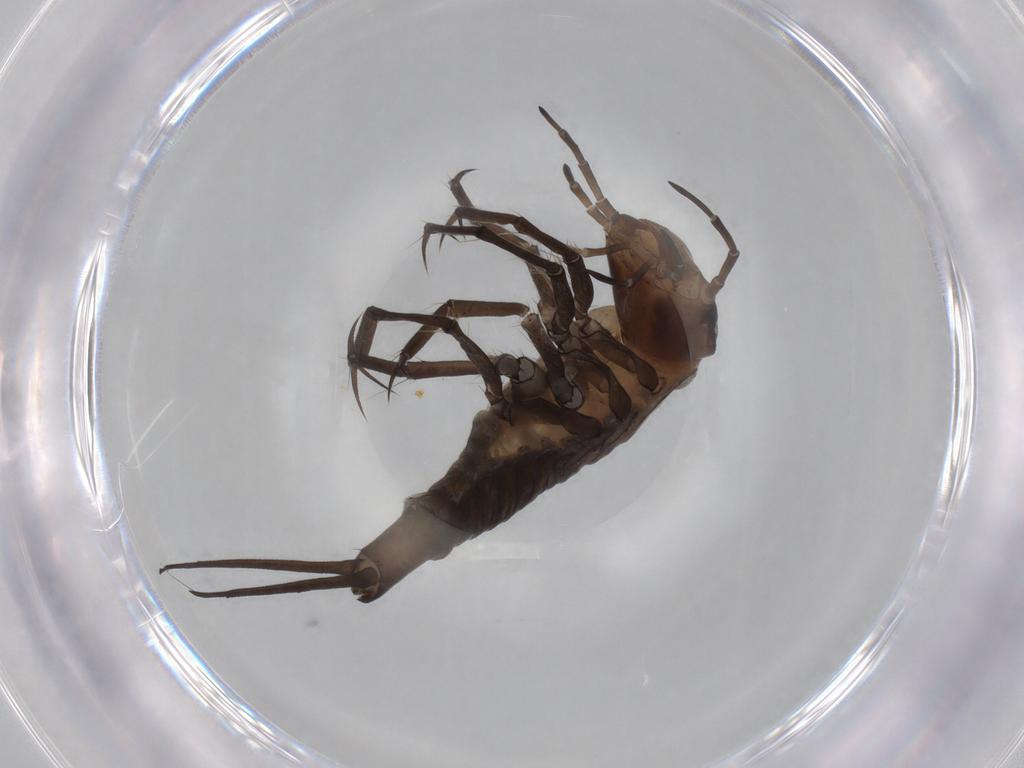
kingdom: Animalia
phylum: Arthropoda
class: Insecta
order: Coleoptera
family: Dytiscidae
